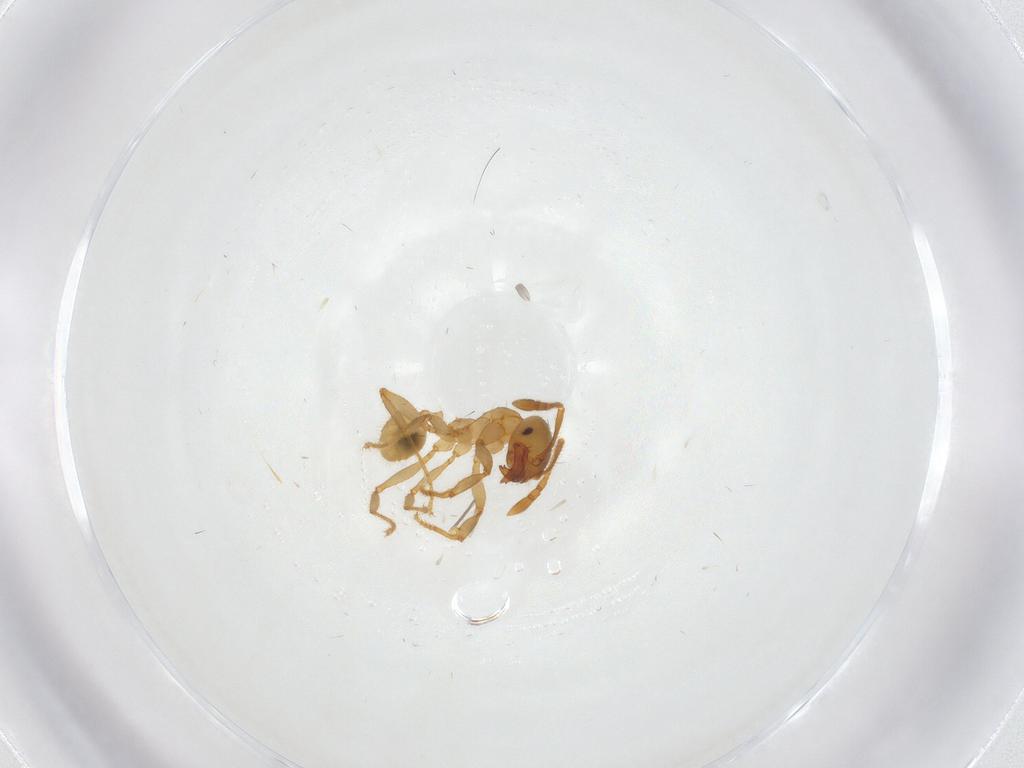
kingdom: Animalia
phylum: Arthropoda
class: Insecta
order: Hymenoptera
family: Formicidae
